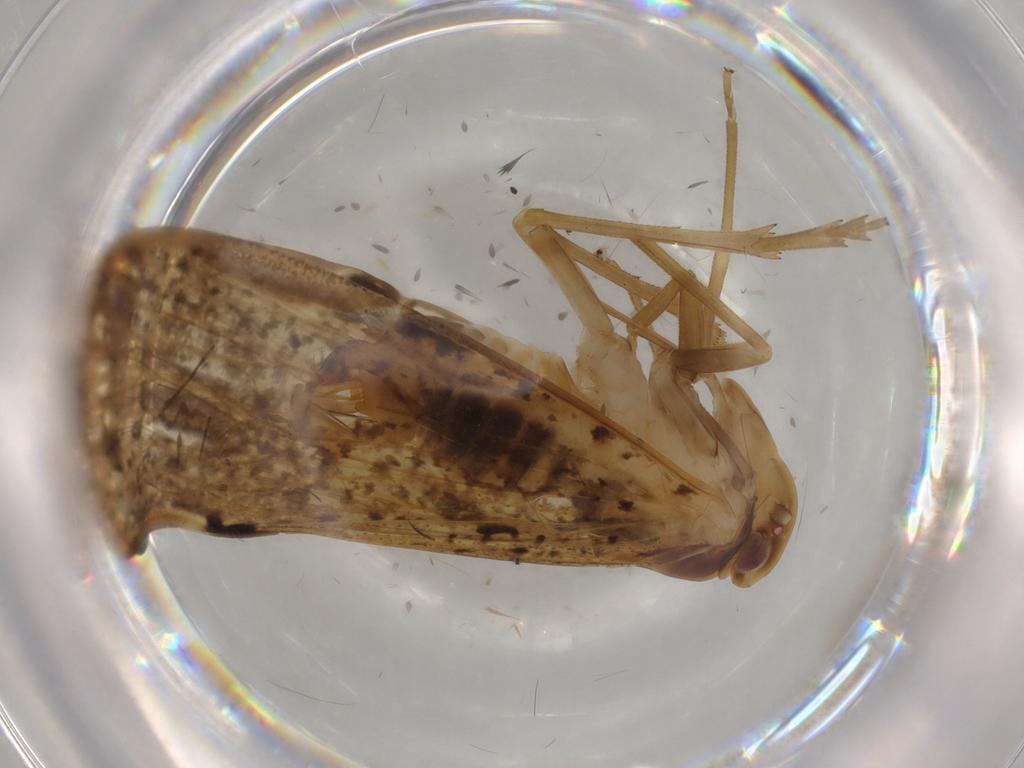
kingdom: Animalia
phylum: Arthropoda
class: Insecta
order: Hemiptera
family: Cixiidae
